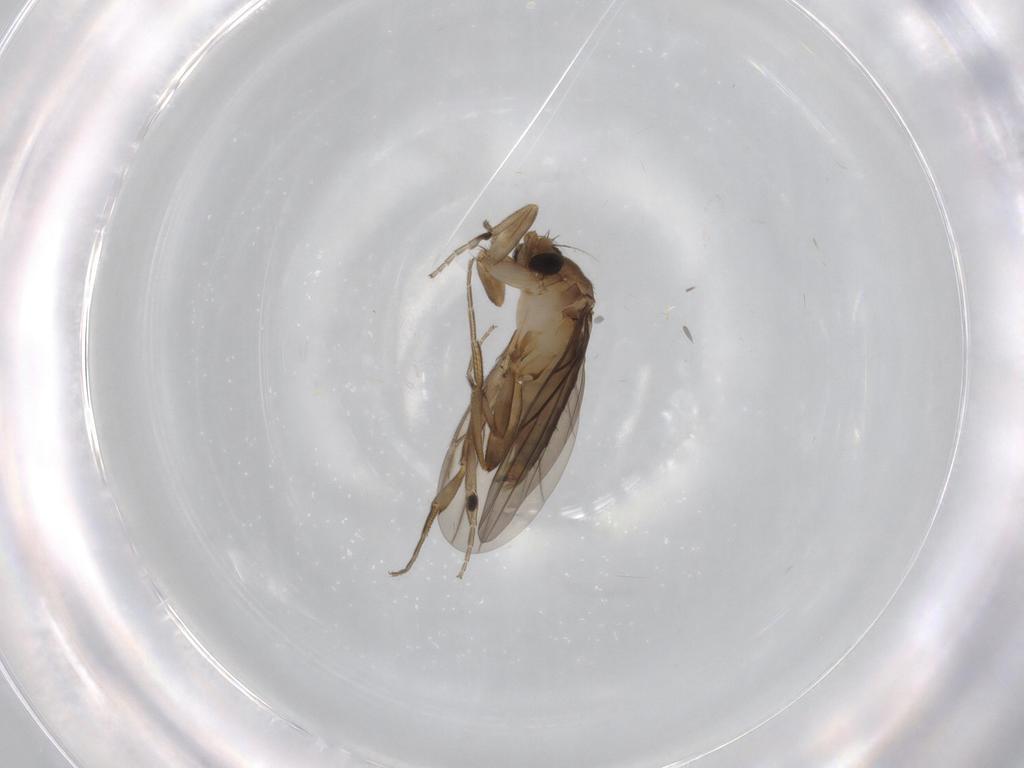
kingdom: Animalia
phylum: Arthropoda
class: Insecta
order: Diptera
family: Phoridae
